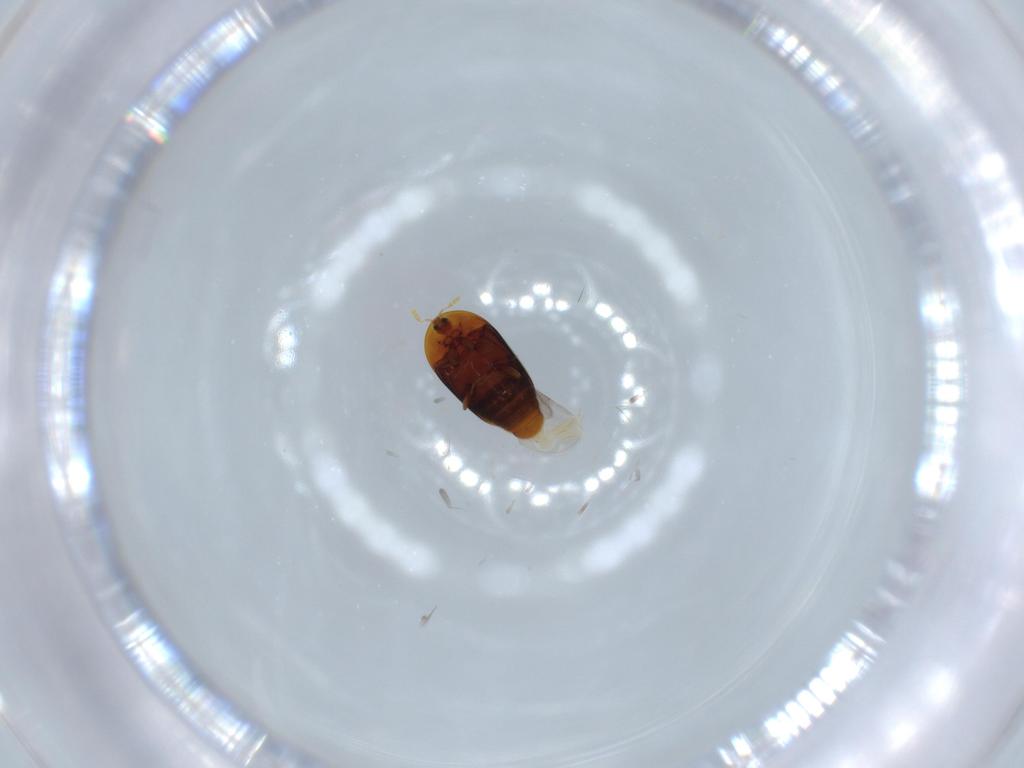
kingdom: Animalia
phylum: Arthropoda
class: Insecta
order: Coleoptera
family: Corylophidae
